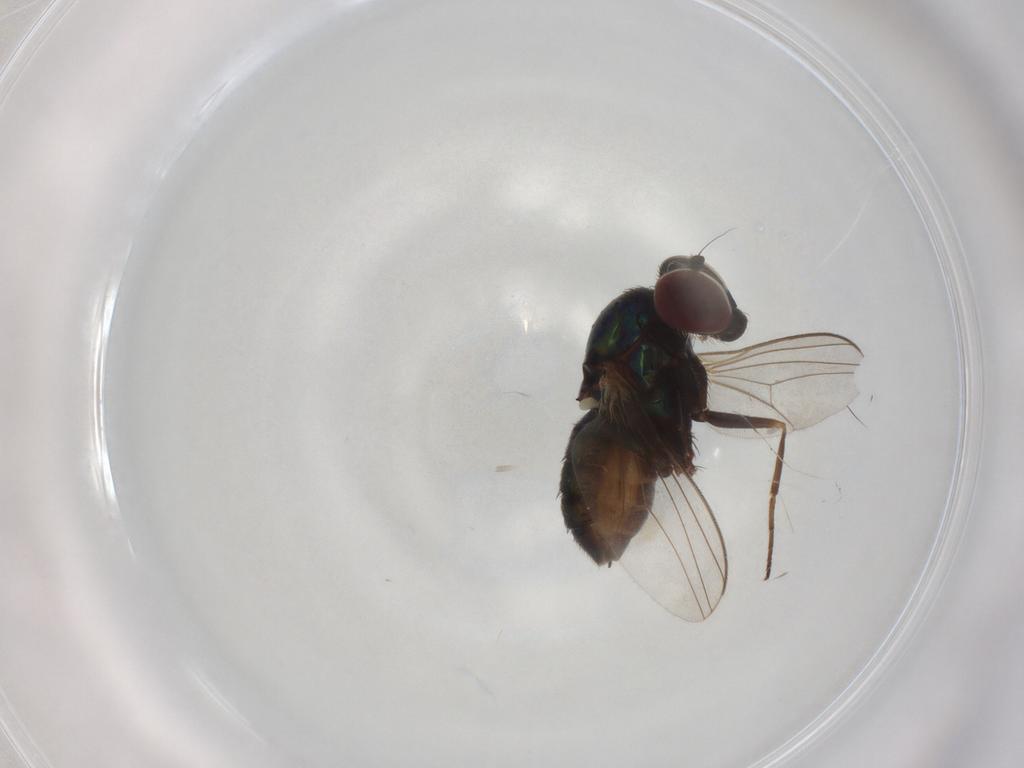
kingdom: Animalia
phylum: Arthropoda
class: Insecta
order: Diptera
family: Dolichopodidae
